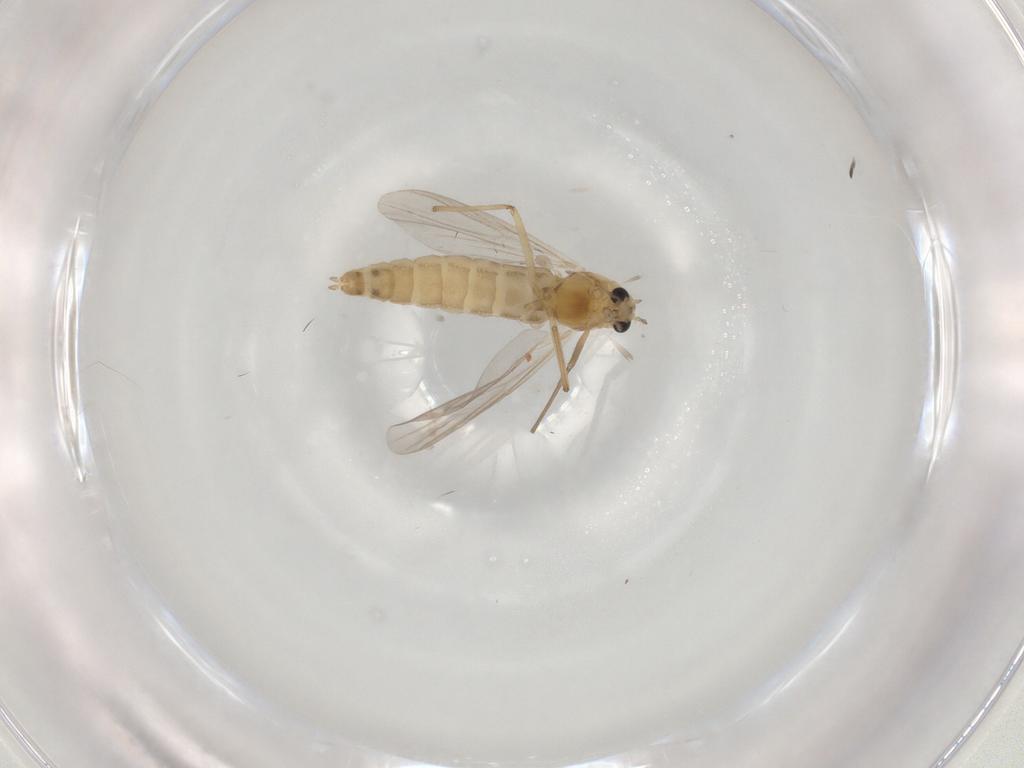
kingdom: Animalia
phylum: Arthropoda
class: Insecta
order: Diptera
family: Chironomidae
